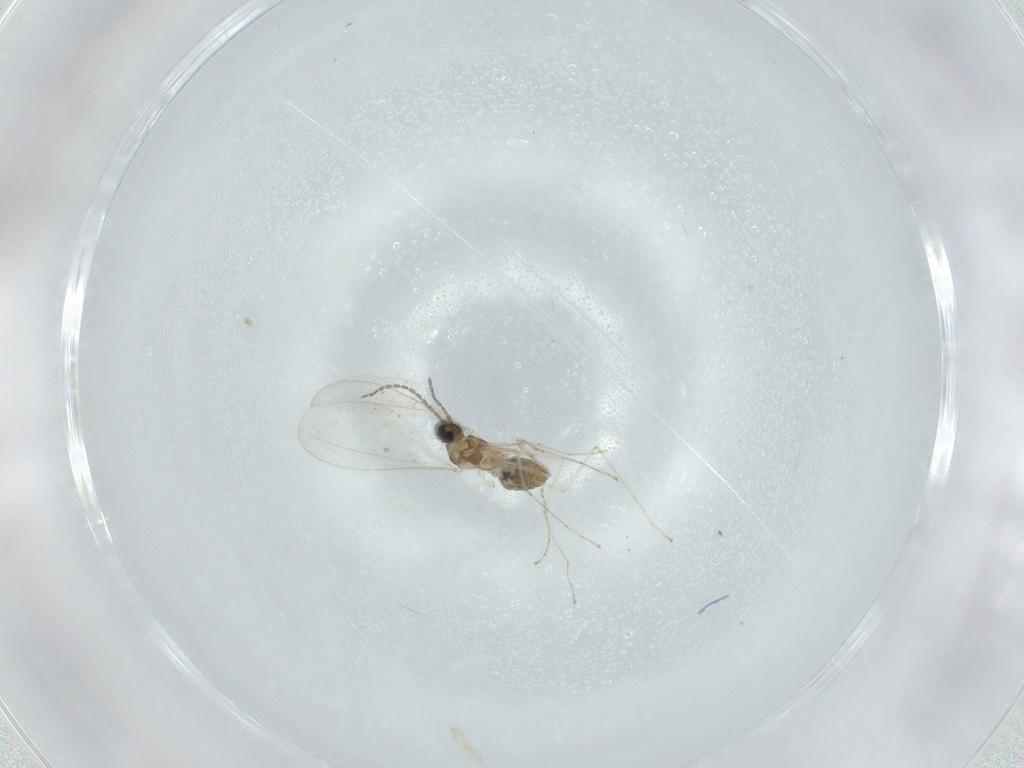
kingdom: Animalia
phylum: Arthropoda
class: Insecta
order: Diptera
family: Cecidomyiidae
